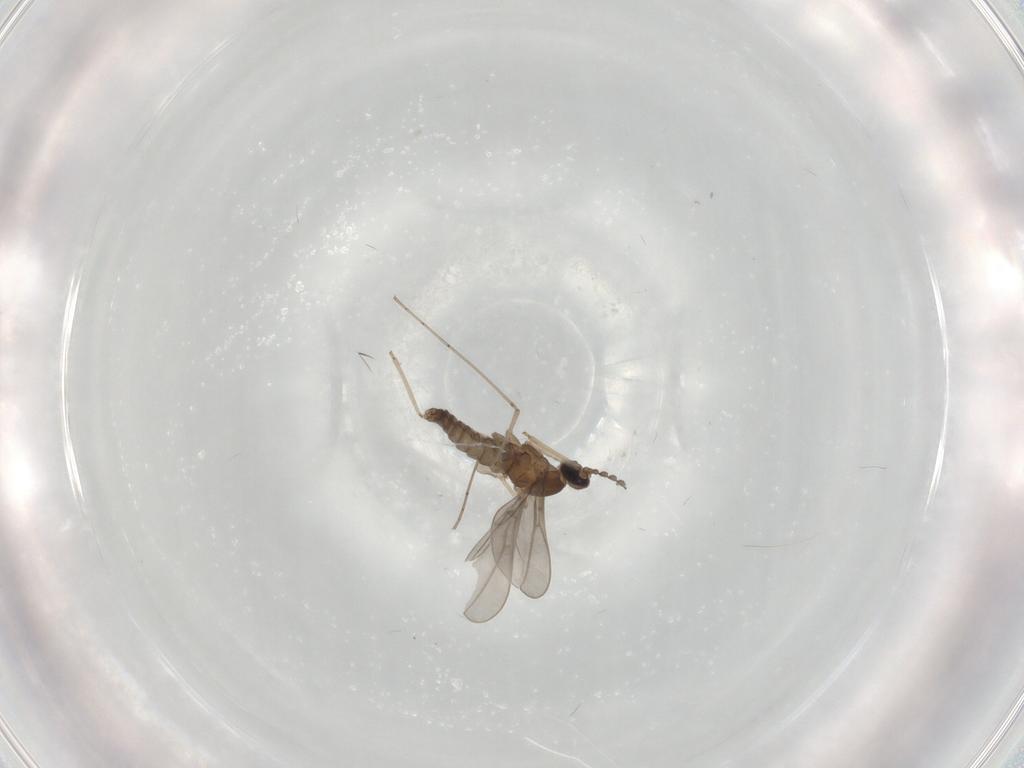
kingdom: Animalia
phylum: Arthropoda
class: Insecta
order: Diptera
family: Cecidomyiidae
